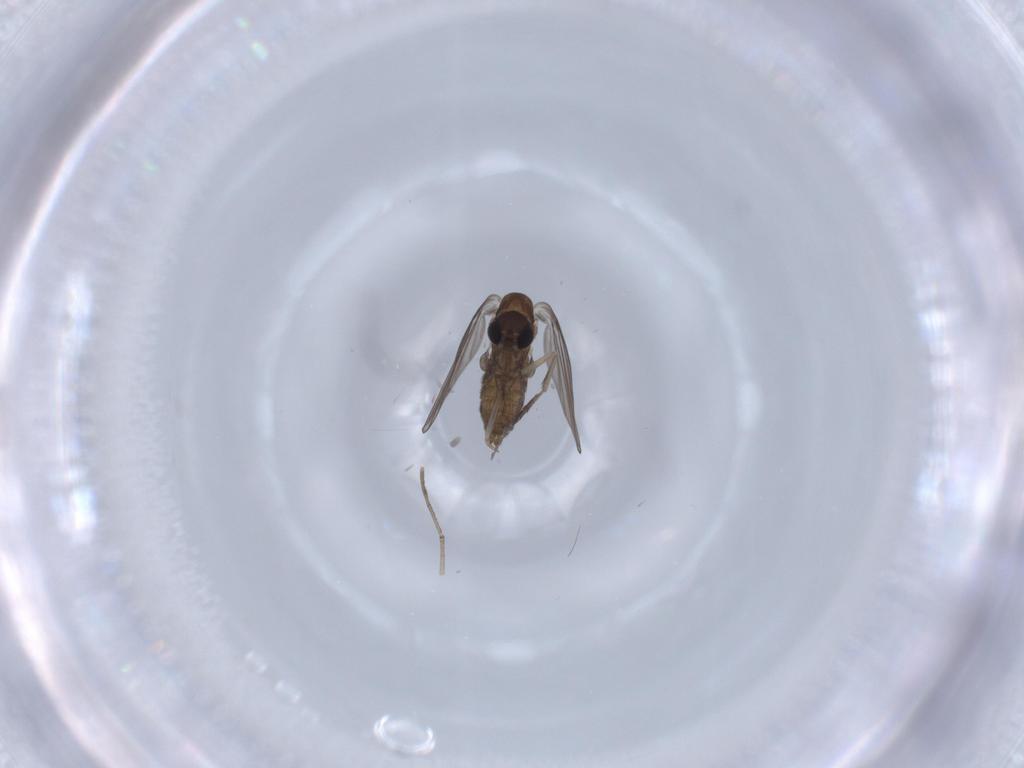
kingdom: Animalia
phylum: Arthropoda
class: Insecta
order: Diptera
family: Psychodidae
